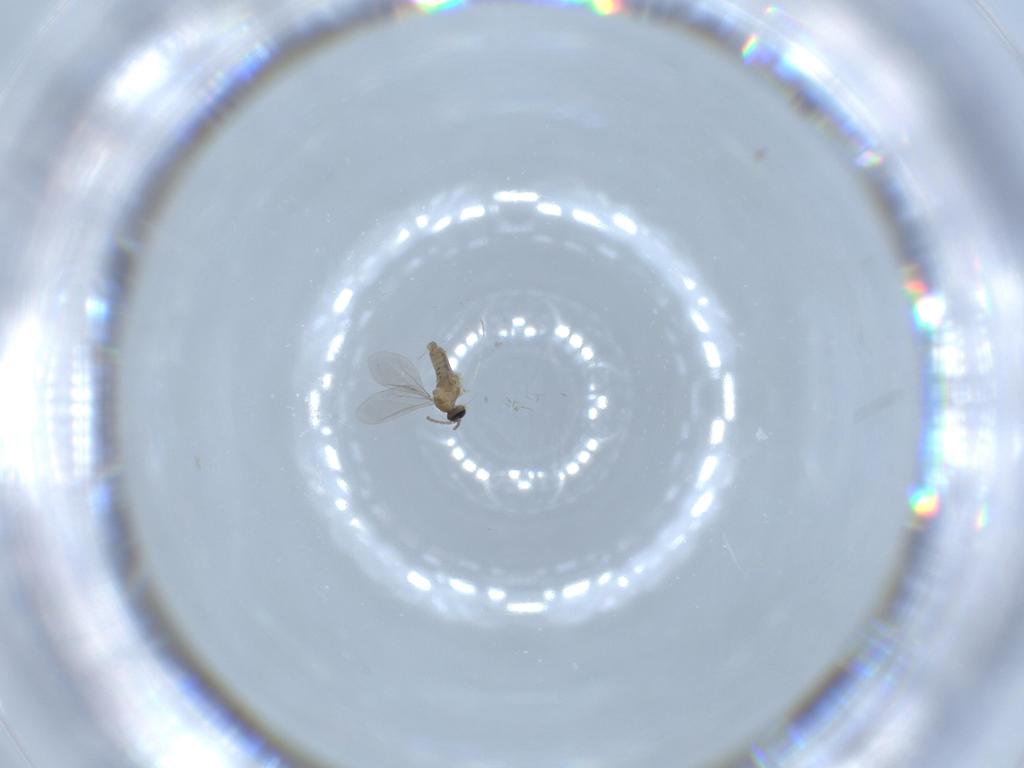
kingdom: Animalia
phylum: Arthropoda
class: Insecta
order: Diptera
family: Cecidomyiidae
